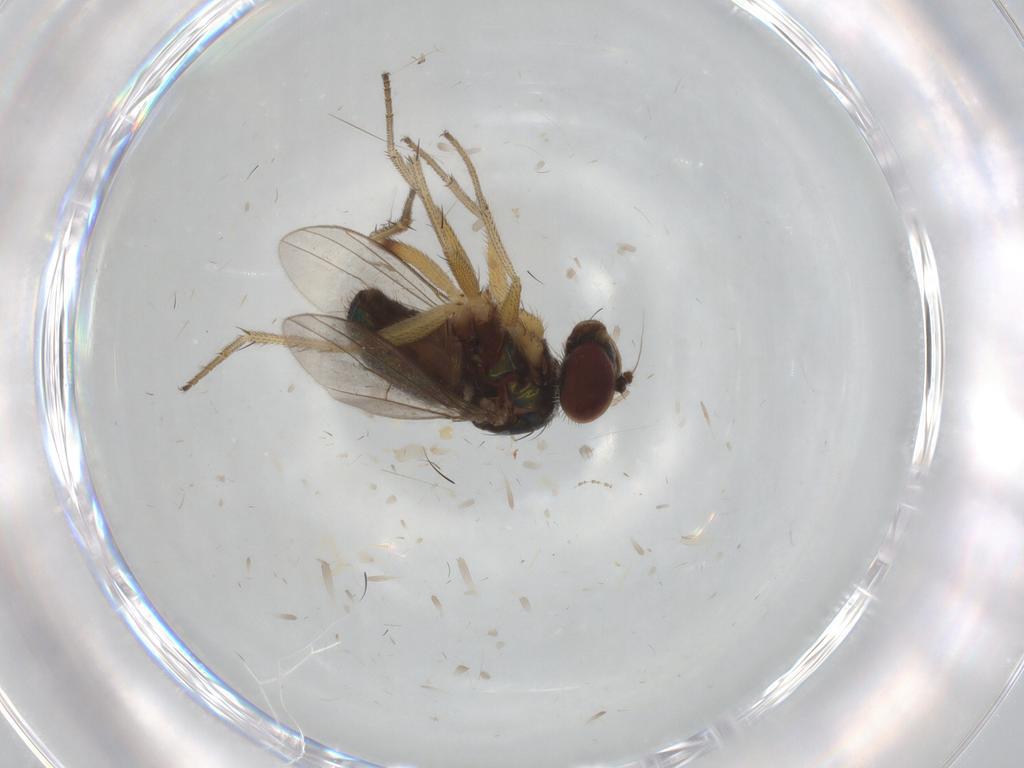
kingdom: Animalia
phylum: Arthropoda
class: Insecta
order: Diptera
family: Dolichopodidae
